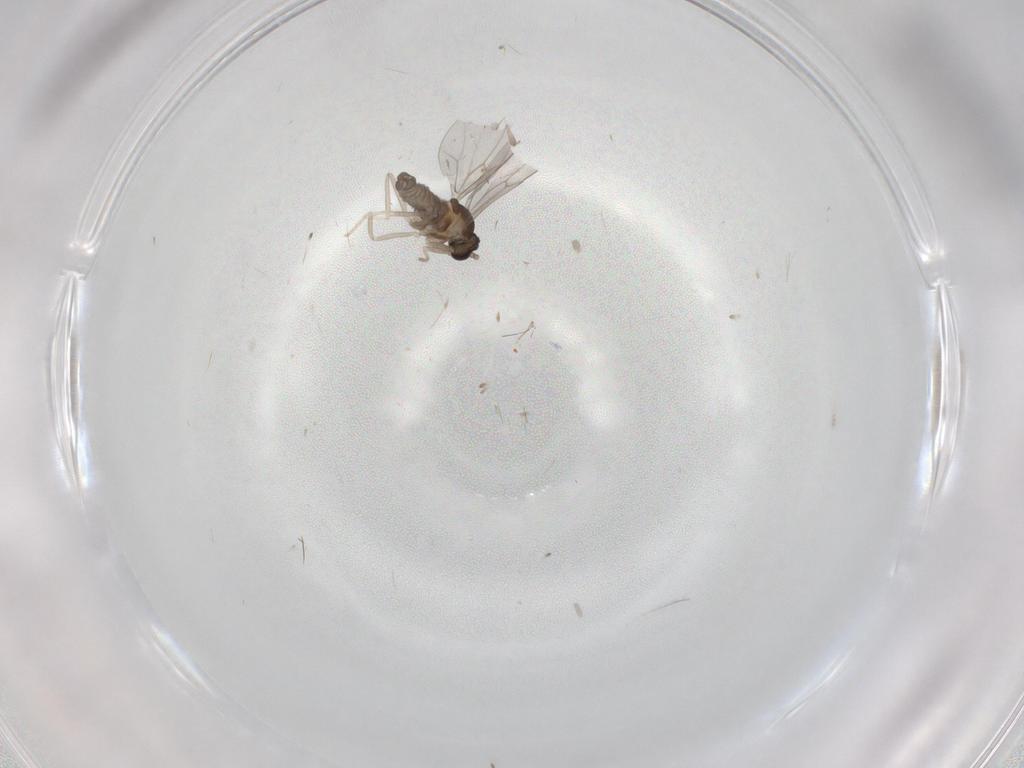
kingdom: Animalia
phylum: Arthropoda
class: Insecta
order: Diptera
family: Cecidomyiidae
